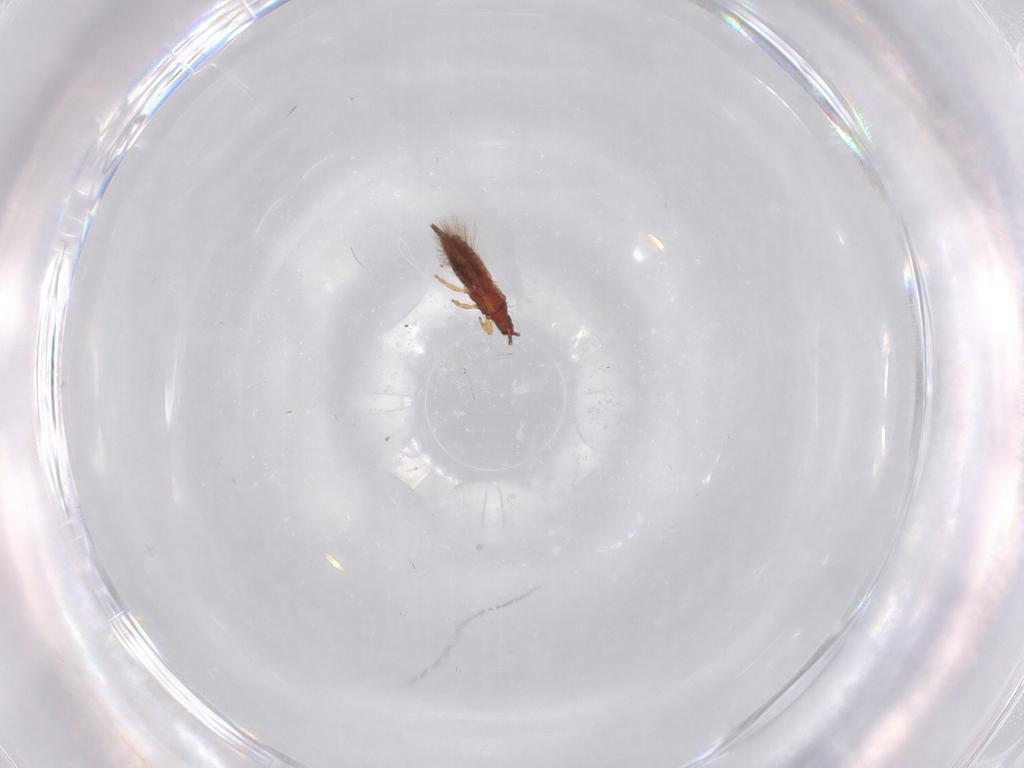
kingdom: Animalia
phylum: Arthropoda
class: Insecta
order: Thysanoptera
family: Phlaeothripidae
